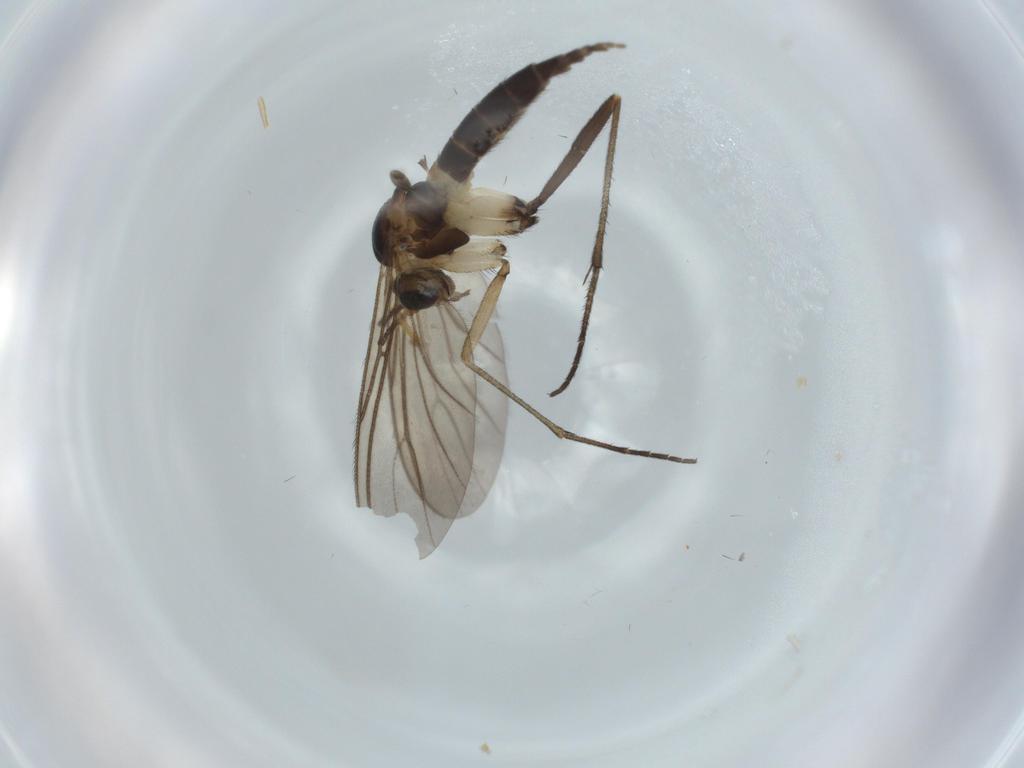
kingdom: Animalia
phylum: Arthropoda
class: Insecta
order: Diptera
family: Sciaridae
